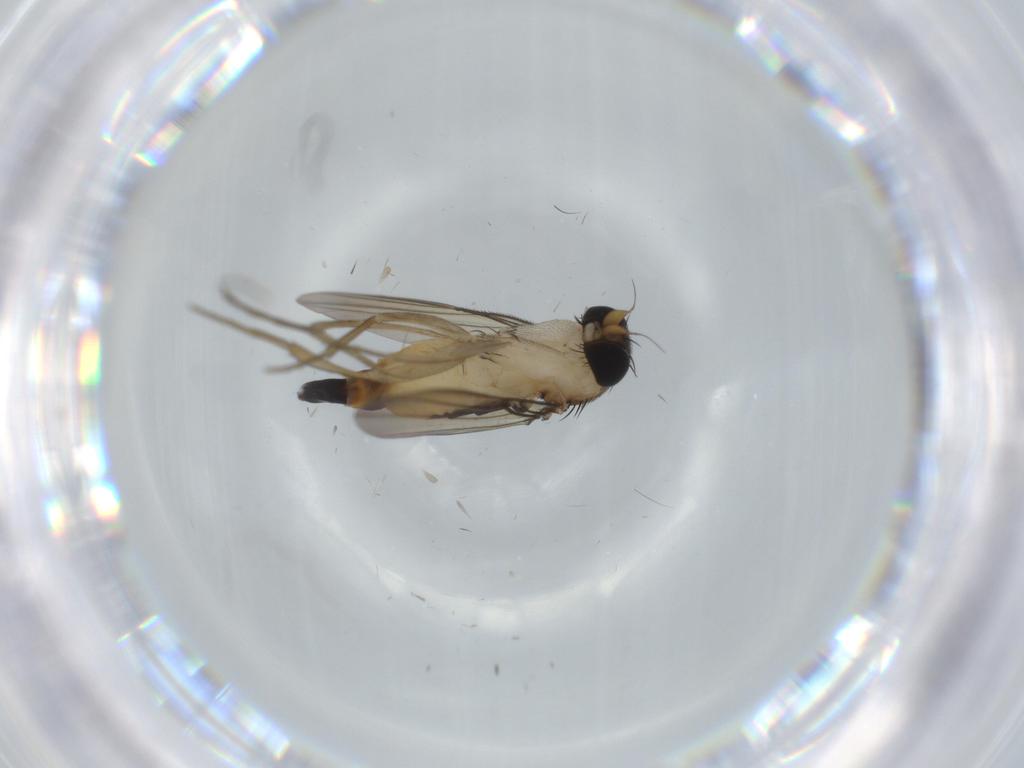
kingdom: Animalia
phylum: Arthropoda
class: Insecta
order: Diptera
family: Phoridae
